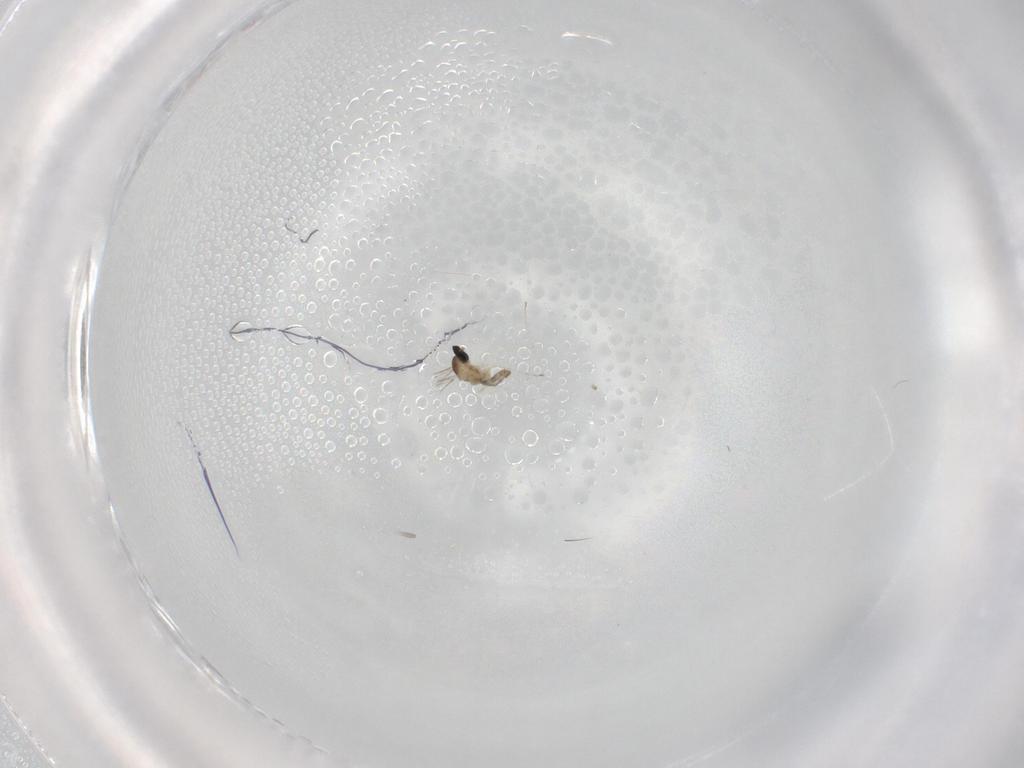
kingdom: Animalia
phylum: Arthropoda
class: Insecta
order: Diptera
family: Cecidomyiidae
